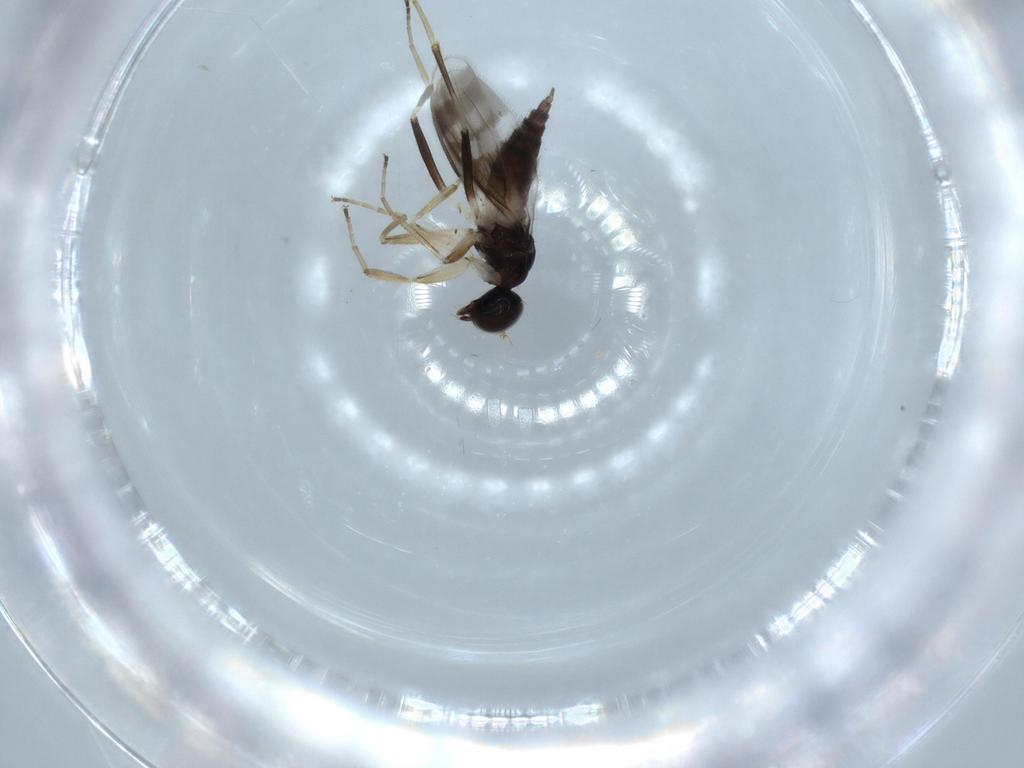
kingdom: Animalia
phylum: Arthropoda
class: Insecta
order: Diptera
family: Hybotidae
